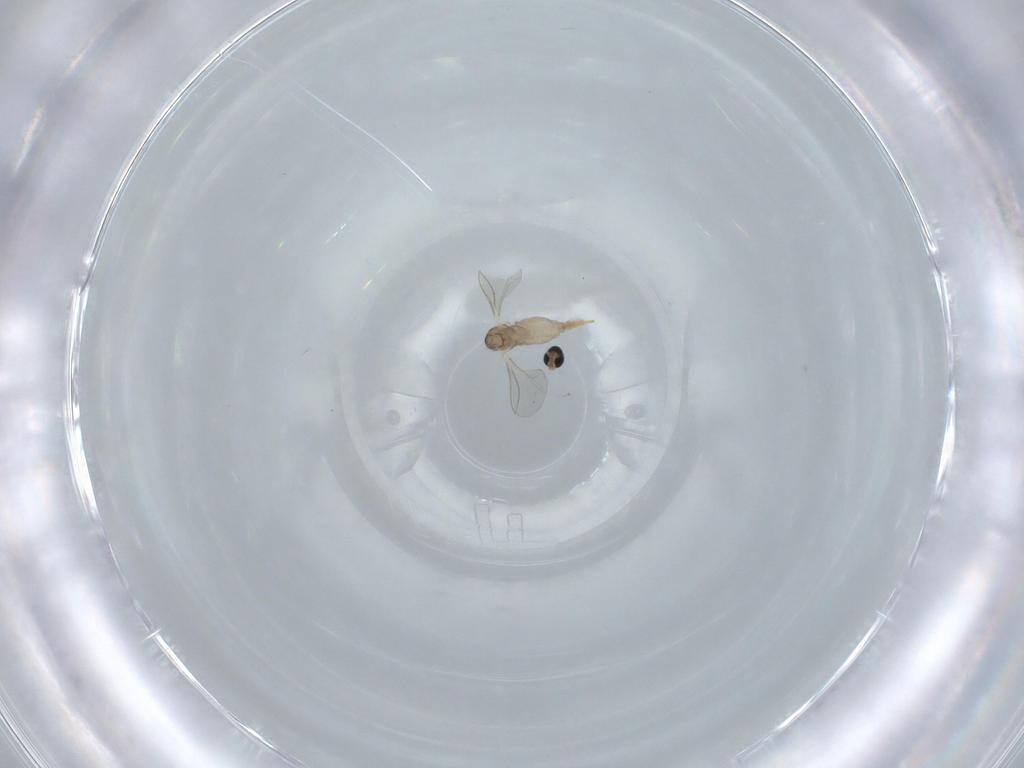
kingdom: Animalia
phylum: Arthropoda
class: Insecta
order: Diptera
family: Cecidomyiidae
